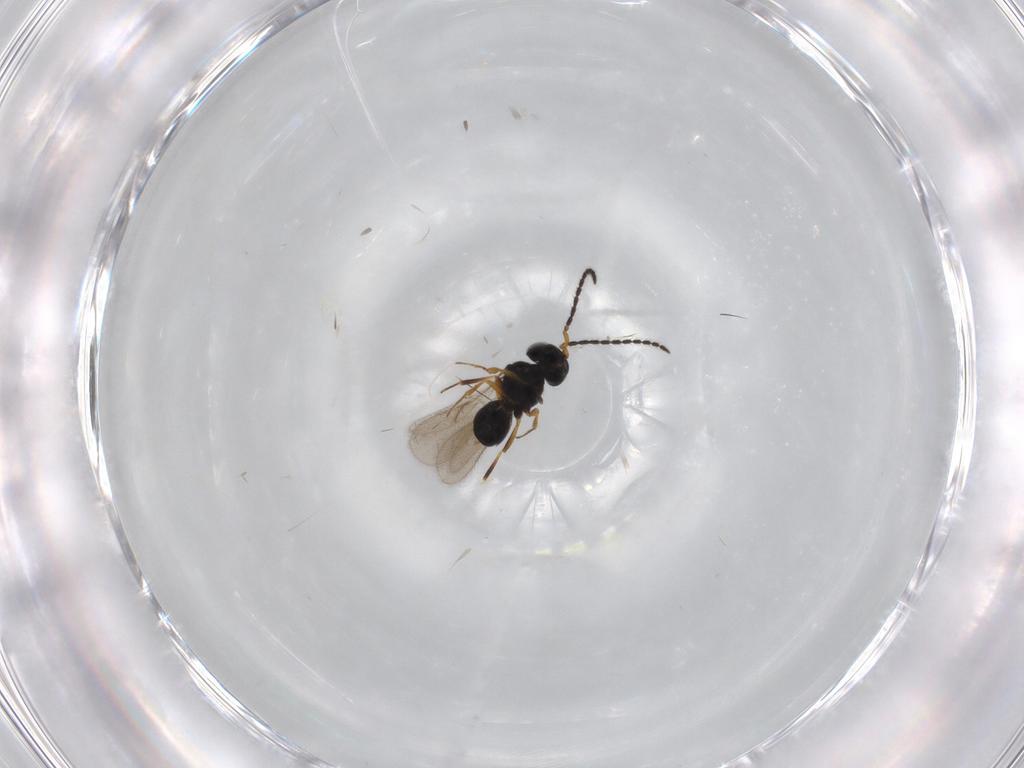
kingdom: Animalia
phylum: Arthropoda
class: Insecta
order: Hymenoptera
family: Scelionidae
